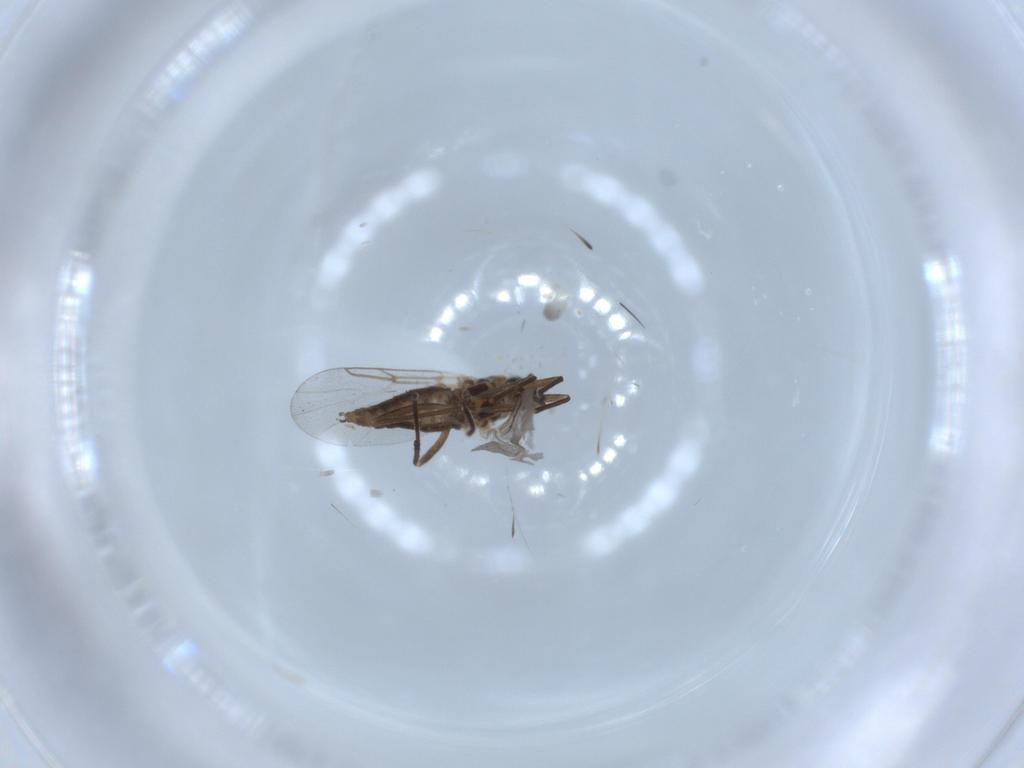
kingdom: Animalia
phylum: Arthropoda
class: Insecta
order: Diptera
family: Cecidomyiidae
